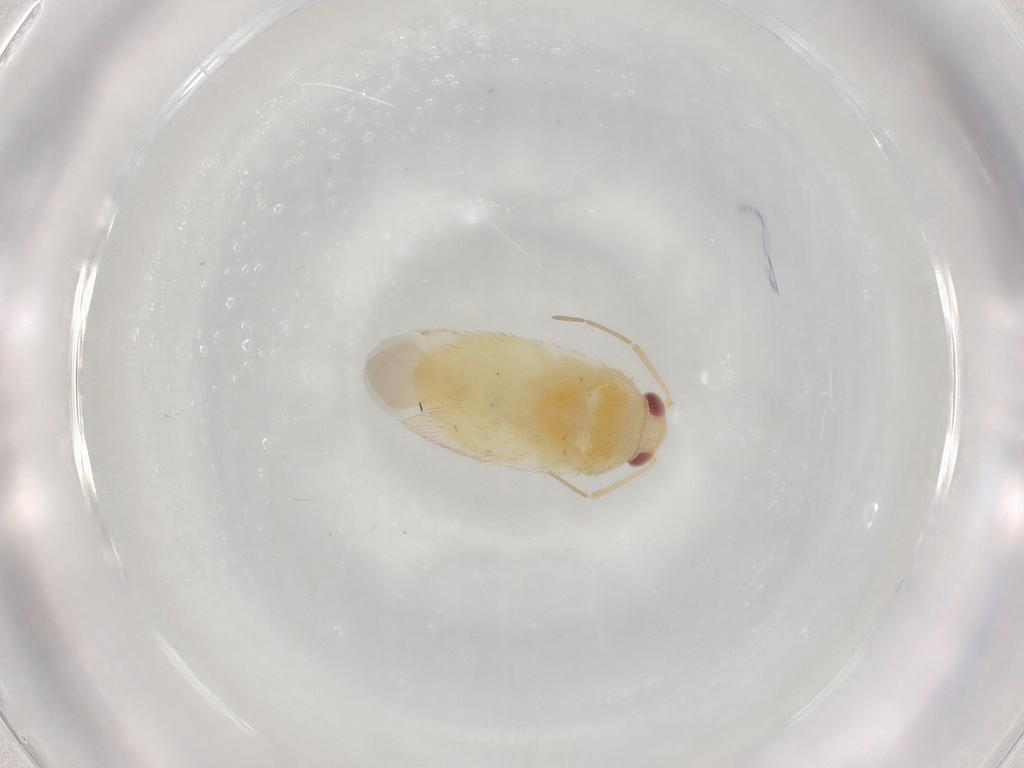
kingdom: Animalia
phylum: Arthropoda
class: Insecta
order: Hemiptera
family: Miridae
